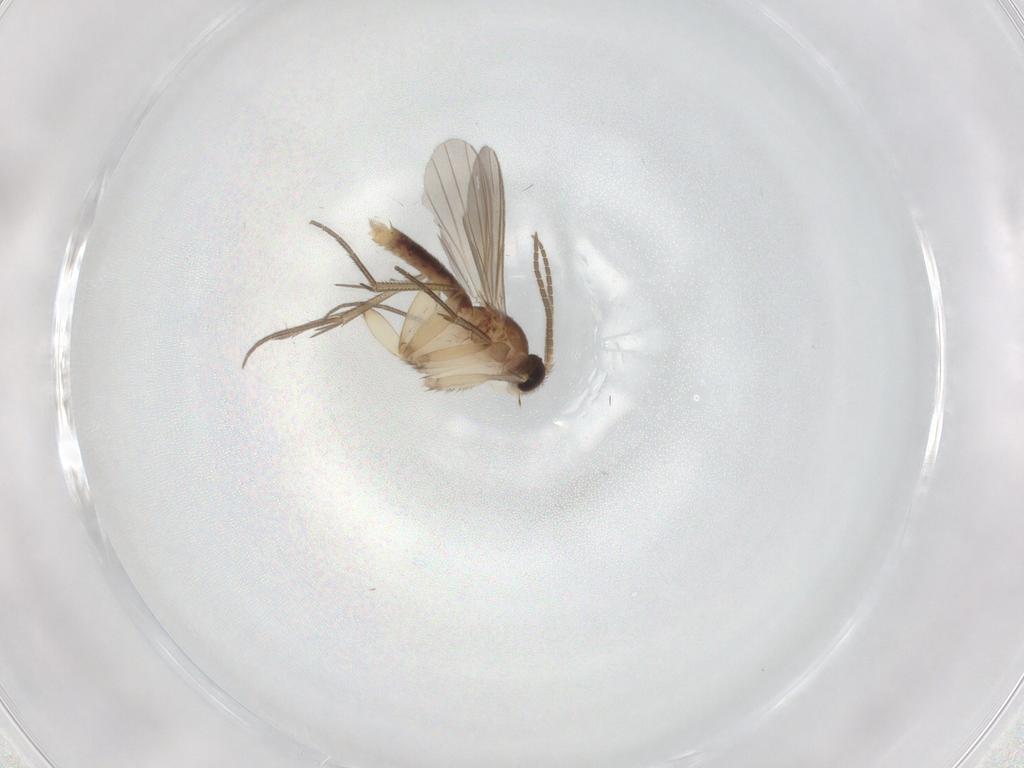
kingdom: Animalia
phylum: Arthropoda
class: Insecta
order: Diptera
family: Mycetophilidae
